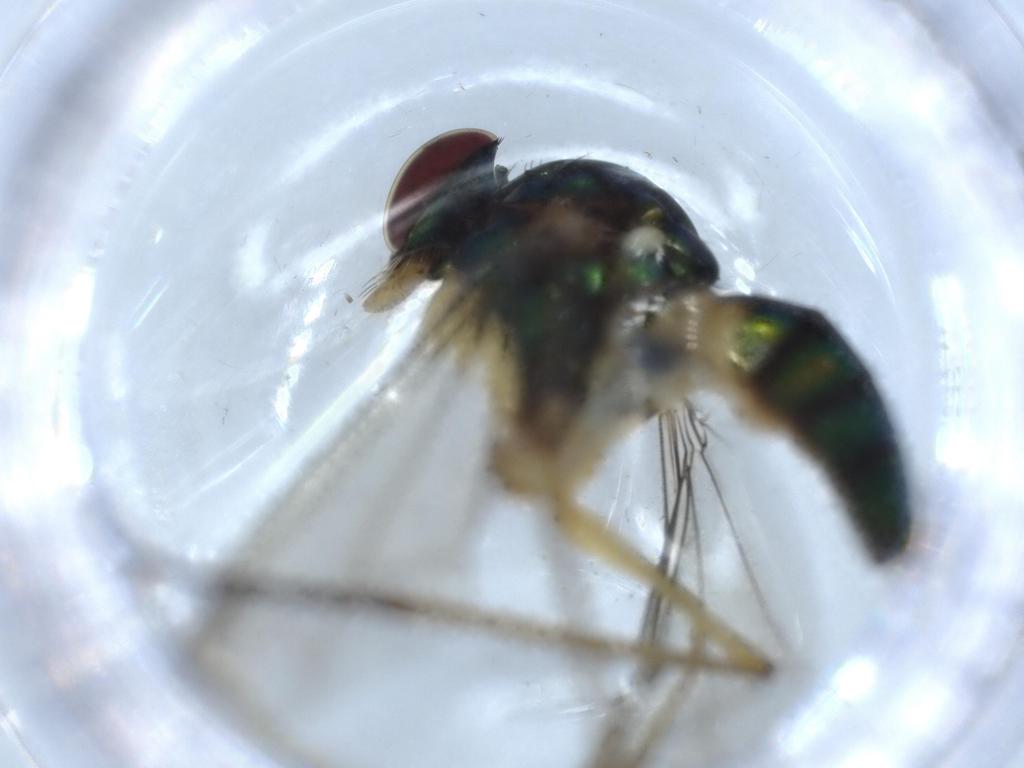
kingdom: Animalia
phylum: Arthropoda
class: Insecta
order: Diptera
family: Dolichopodidae
